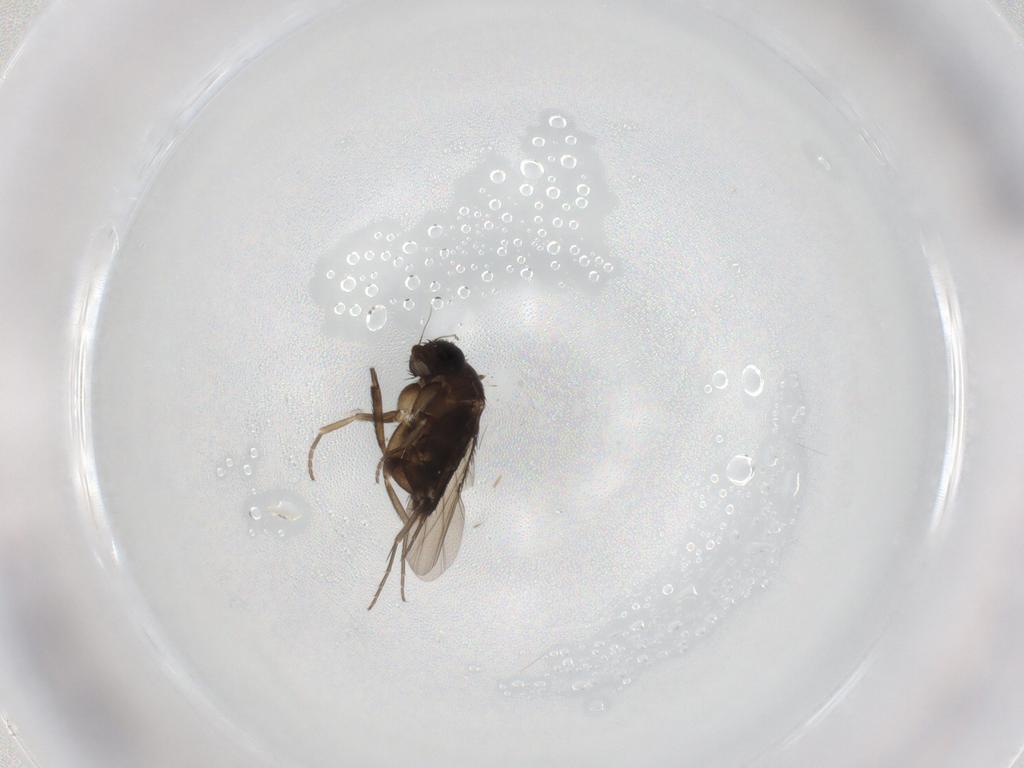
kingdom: Animalia
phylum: Arthropoda
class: Insecta
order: Diptera
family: Phoridae
